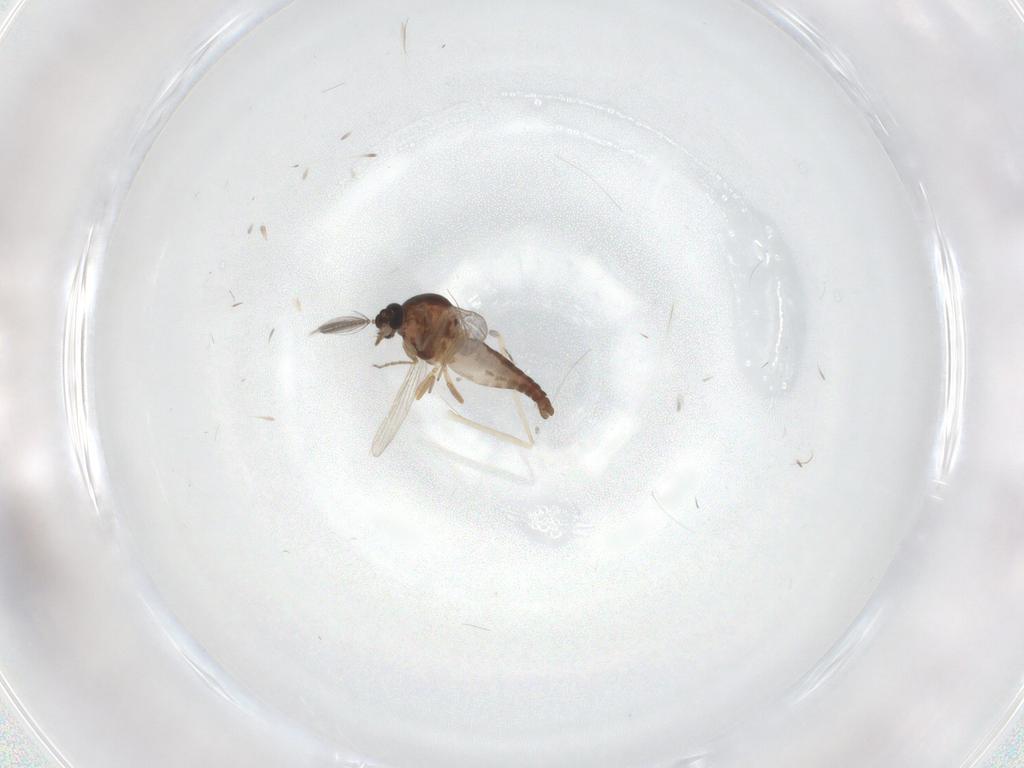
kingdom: Animalia
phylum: Arthropoda
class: Insecta
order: Diptera
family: Ceratopogonidae
